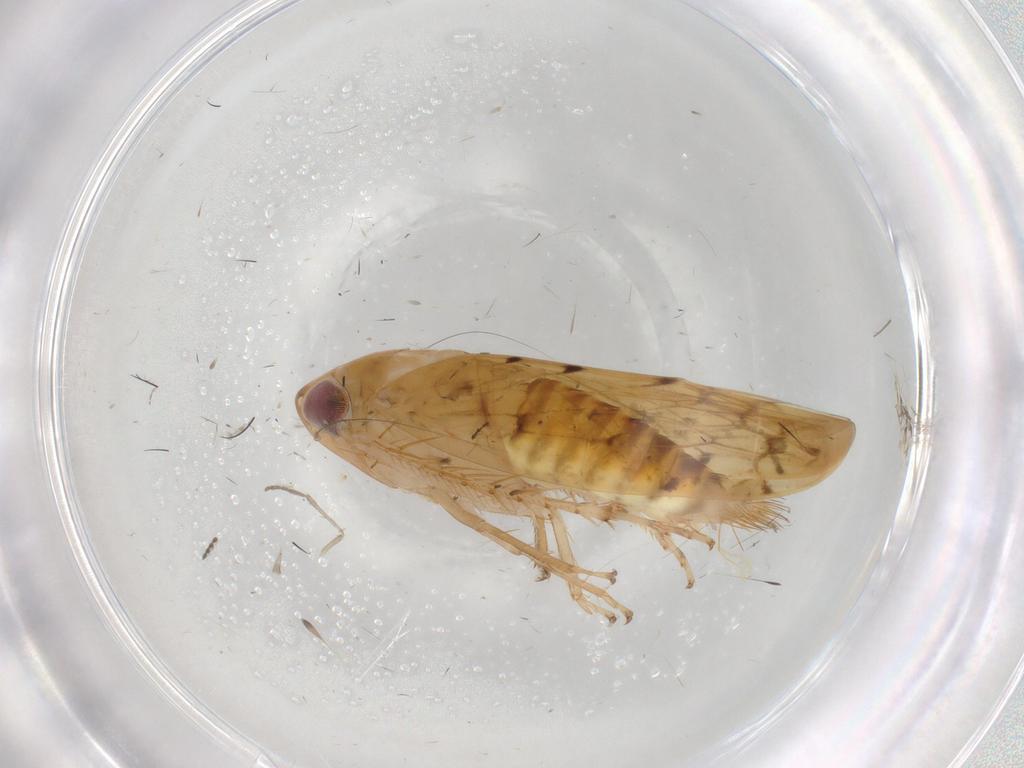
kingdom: Animalia
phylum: Arthropoda
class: Insecta
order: Hemiptera
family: Cicadellidae
